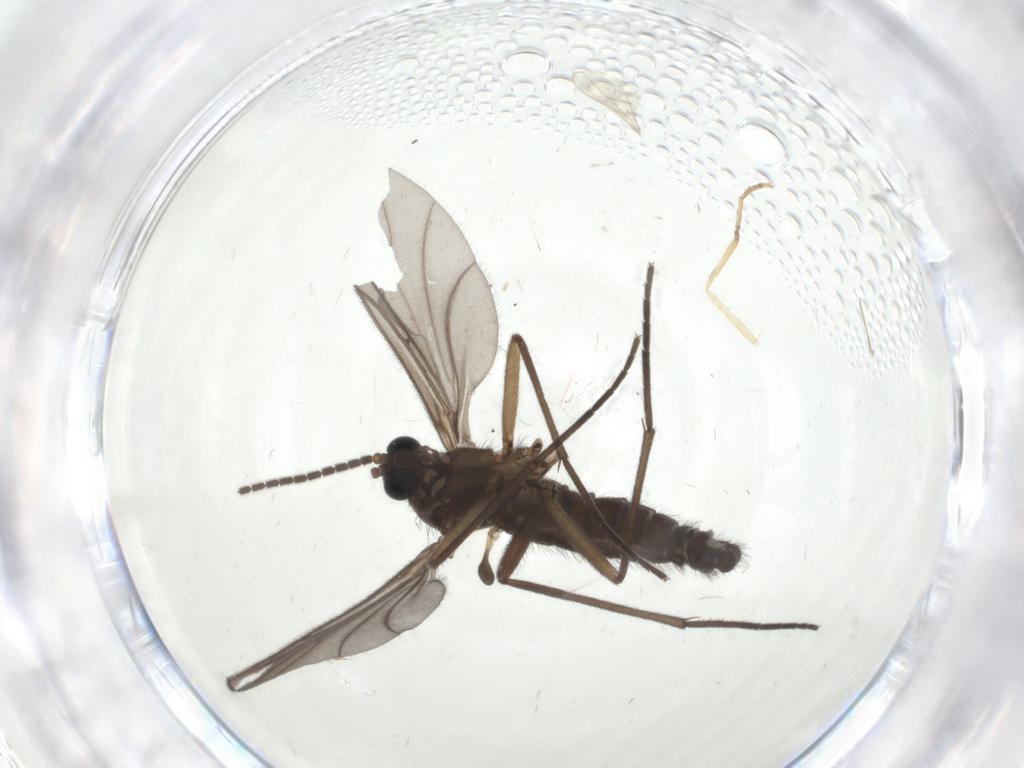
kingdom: Animalia
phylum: Arthropoda
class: Insecta
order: Diptera
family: Sciaridae
